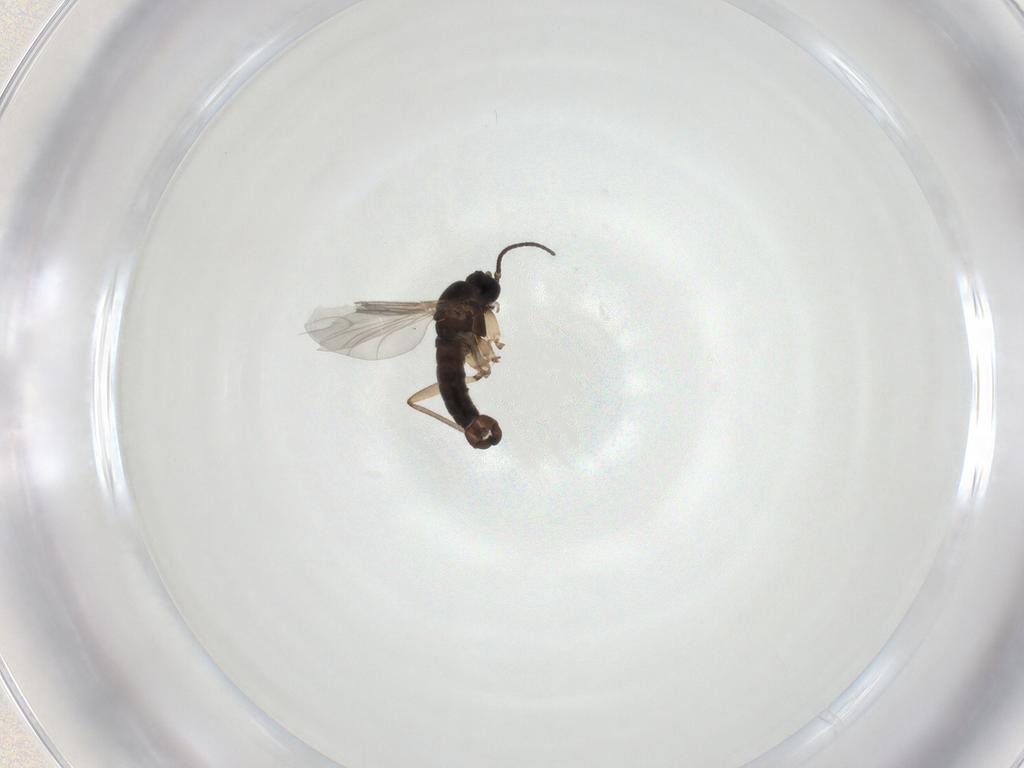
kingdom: Animalia
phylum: Arthropoda
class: Insecta
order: Diptera
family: Sciaridae
